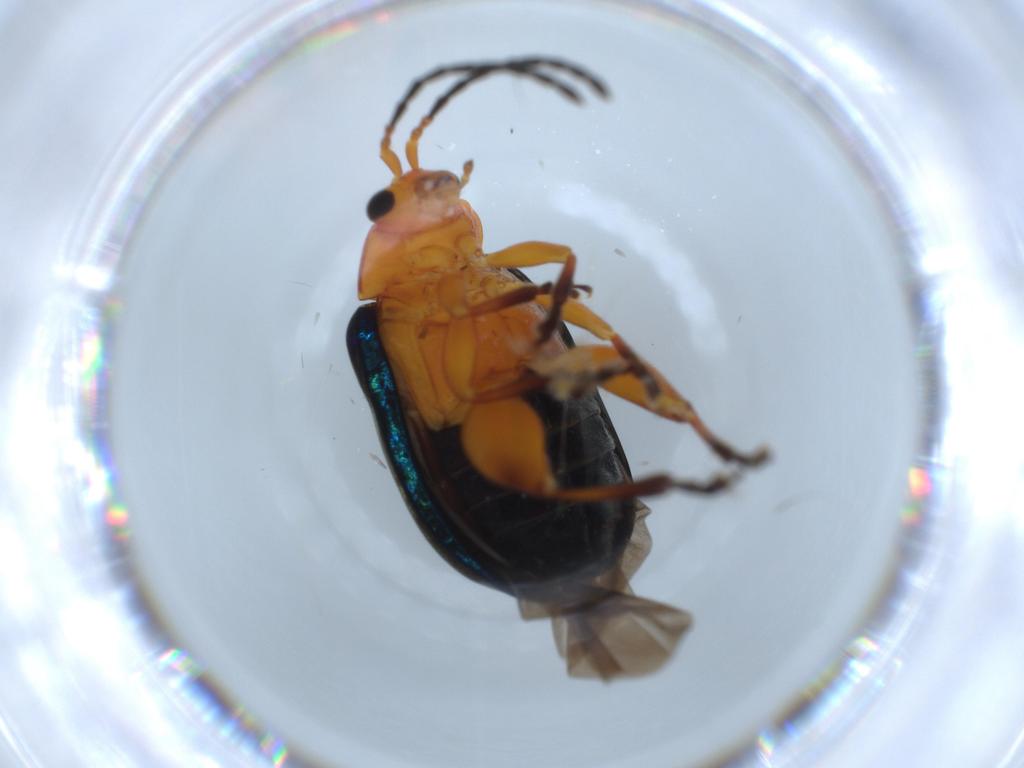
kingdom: Animalia
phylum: Arthropoda
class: Insecta
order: Coleoptera
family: Chrysomelidae
